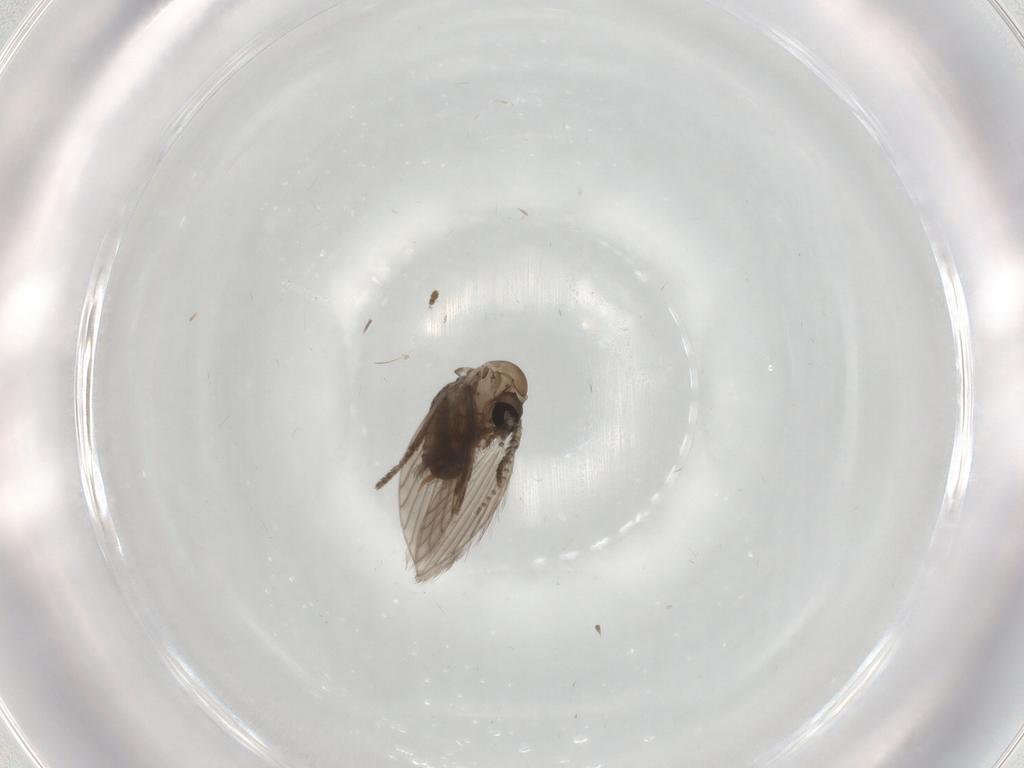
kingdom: Animalia
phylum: Arthropoda
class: Insecta
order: Diptera
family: Psychodidae
